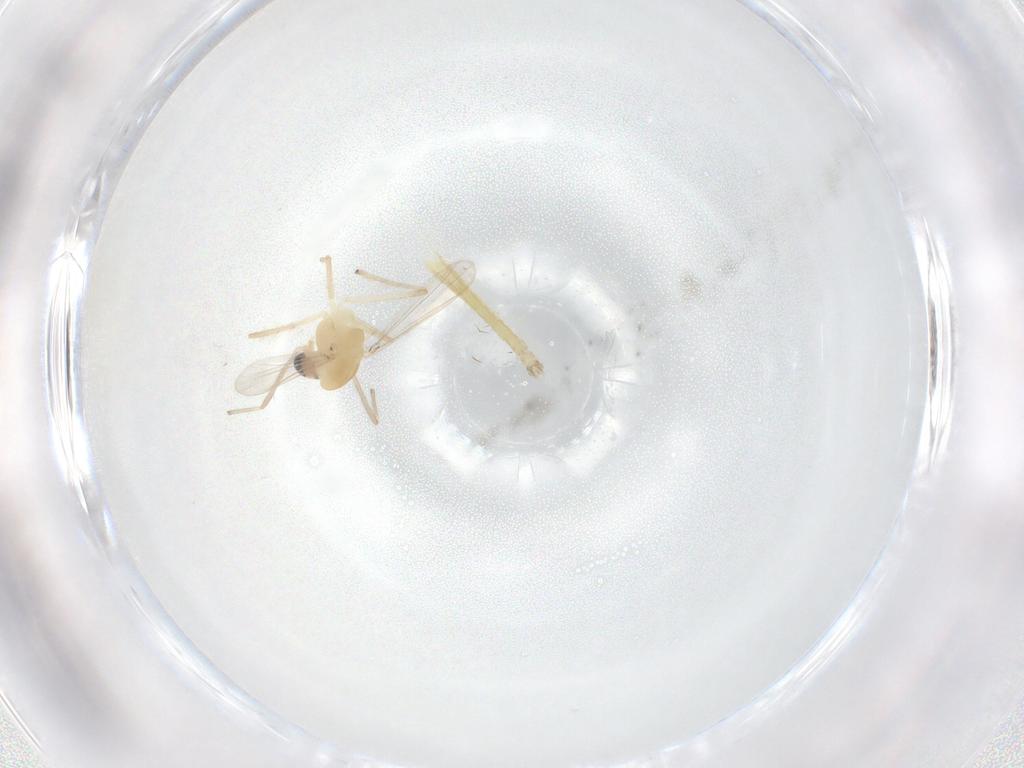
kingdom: Animalia
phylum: Arthropoda
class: Insecta
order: Diptera
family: Chironomidae
